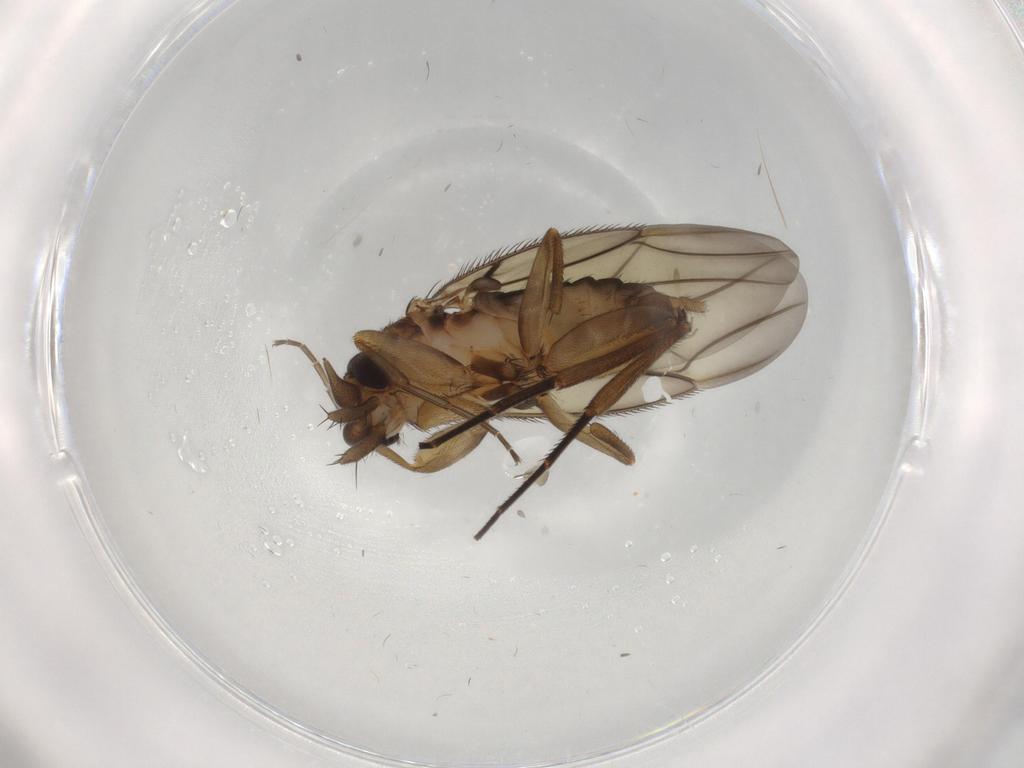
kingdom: Animalia
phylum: Arthropoda
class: Insecta
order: Diptera
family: Phoridae
